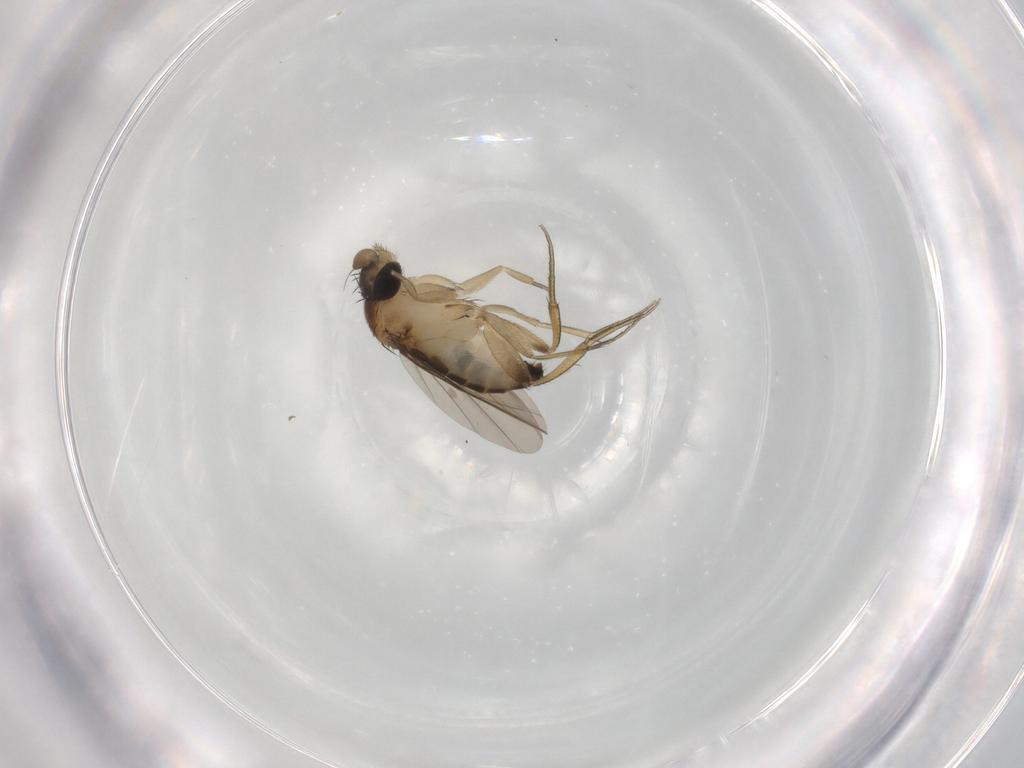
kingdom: Animalia
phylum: Arthropoda
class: Insecta
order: Diptera
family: Phoridae
